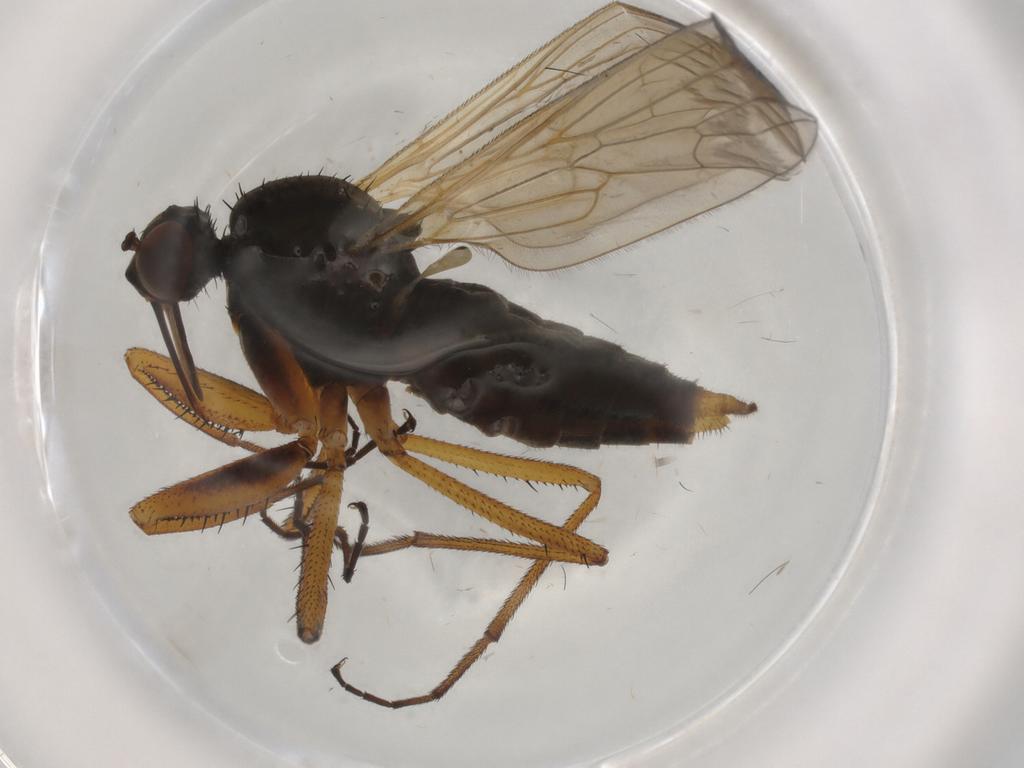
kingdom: Animalia
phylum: Arthropoda
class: Insecta
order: Diptera
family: Empididae
